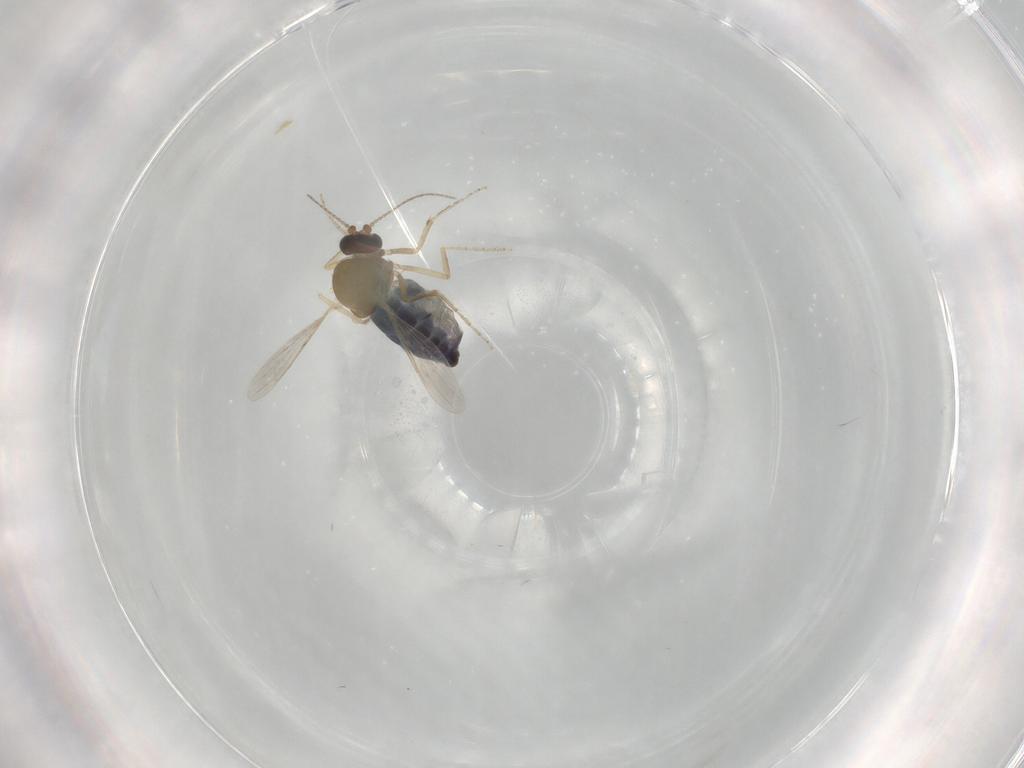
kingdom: Animalia
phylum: Arthropoda
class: Insecta
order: Diptera
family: Ceratopogonidae
